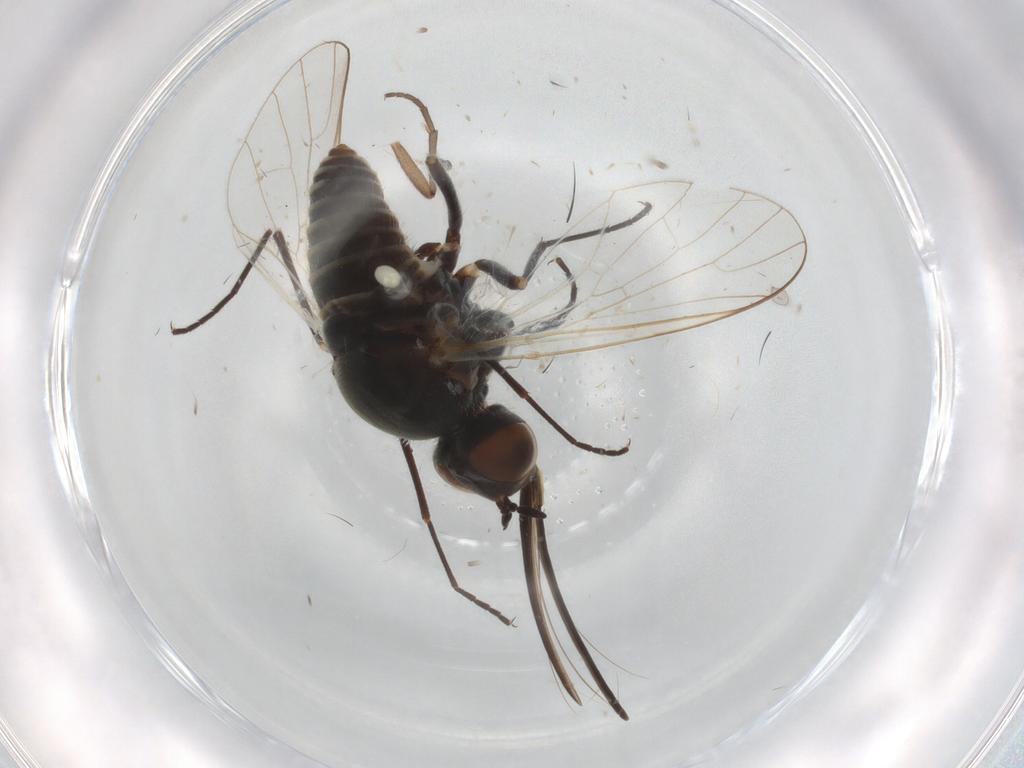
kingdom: Animalia
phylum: Arthropoda
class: Insecta
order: Diptera
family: Bombyliidae
